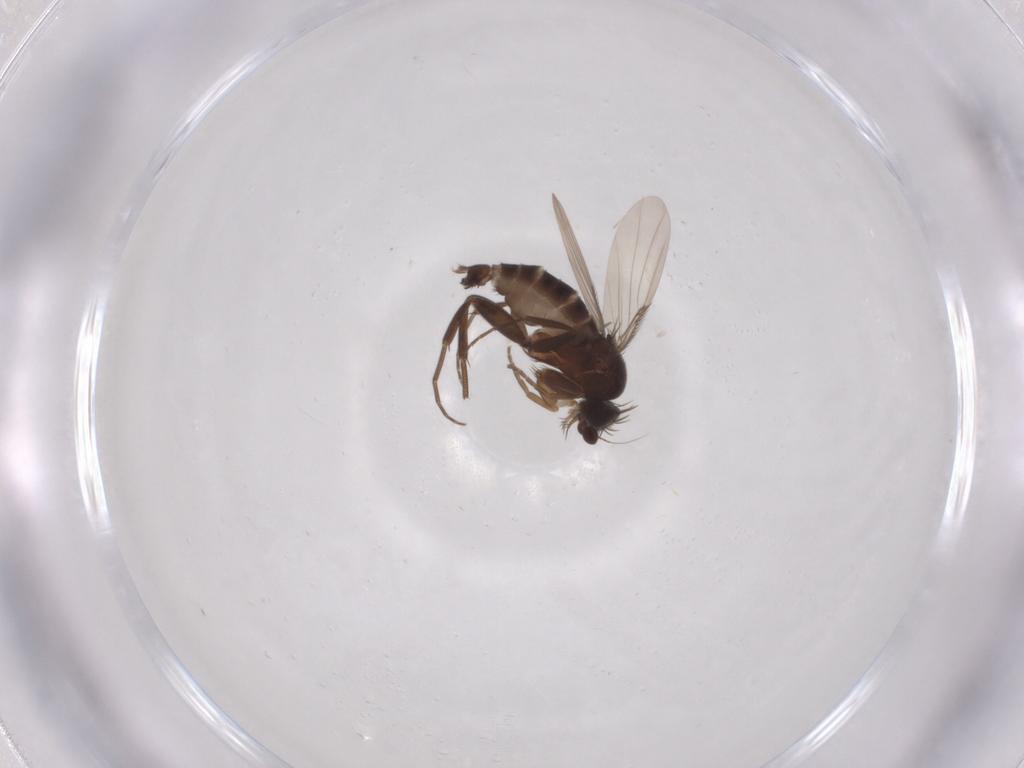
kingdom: Animalia
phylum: Arthropoda
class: Insecta
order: Diptera
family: Phoridae
